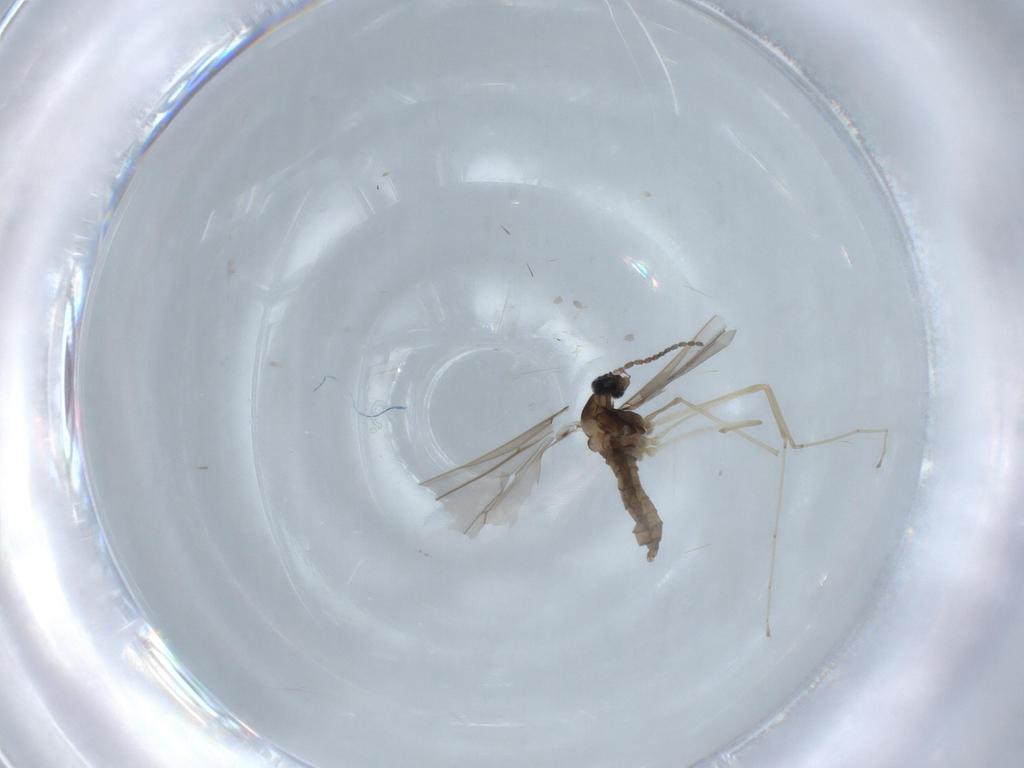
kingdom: Animalia
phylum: Arthropoda
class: Insecta
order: Diptera
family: Cecidomyiidae
